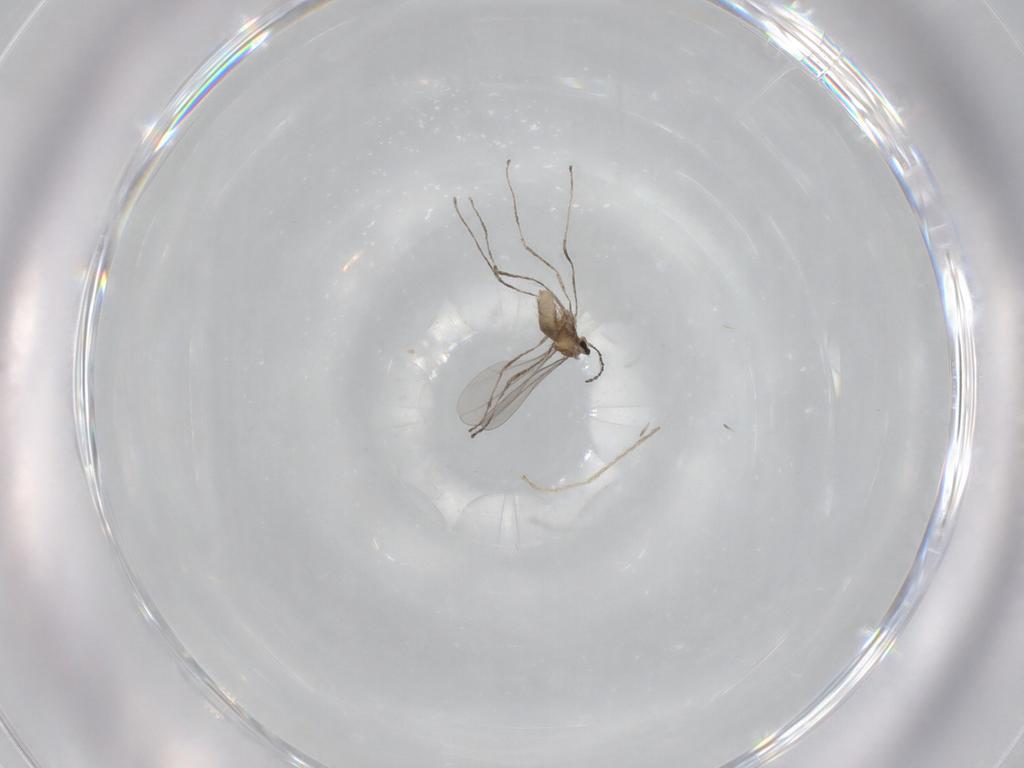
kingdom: Animalia
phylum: Arthropoda
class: Insecta
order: Diptera
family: Limoniidae
